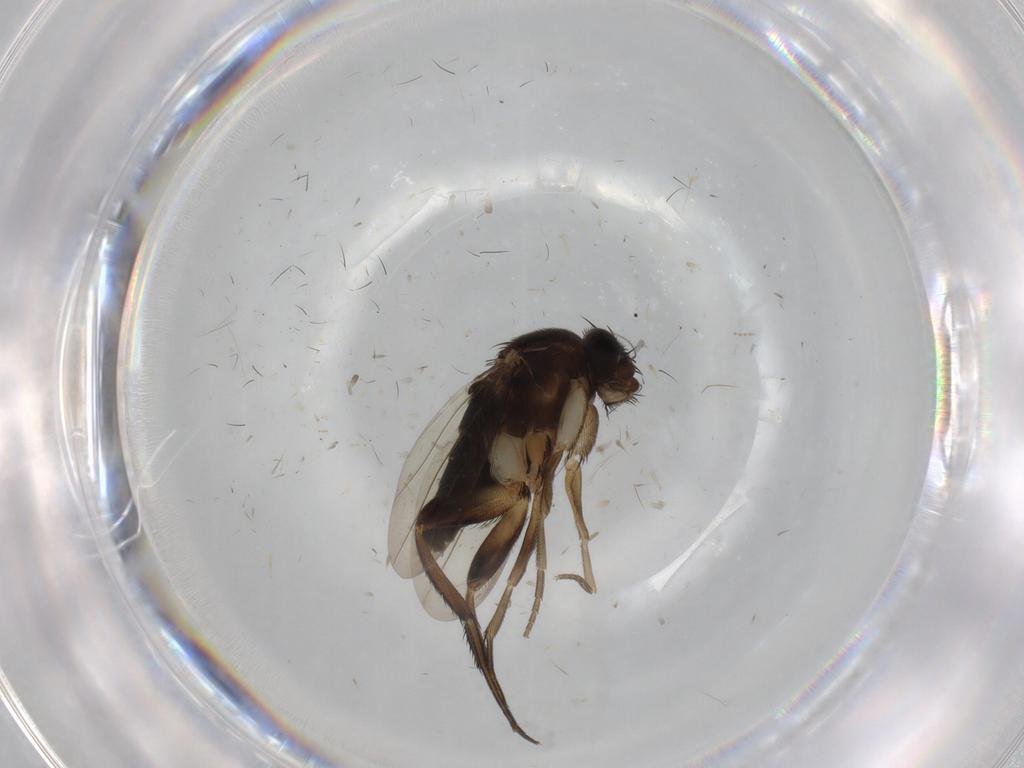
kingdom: Animalia
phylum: Arthropoda
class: Insecta
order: Diptera
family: Phoridae
